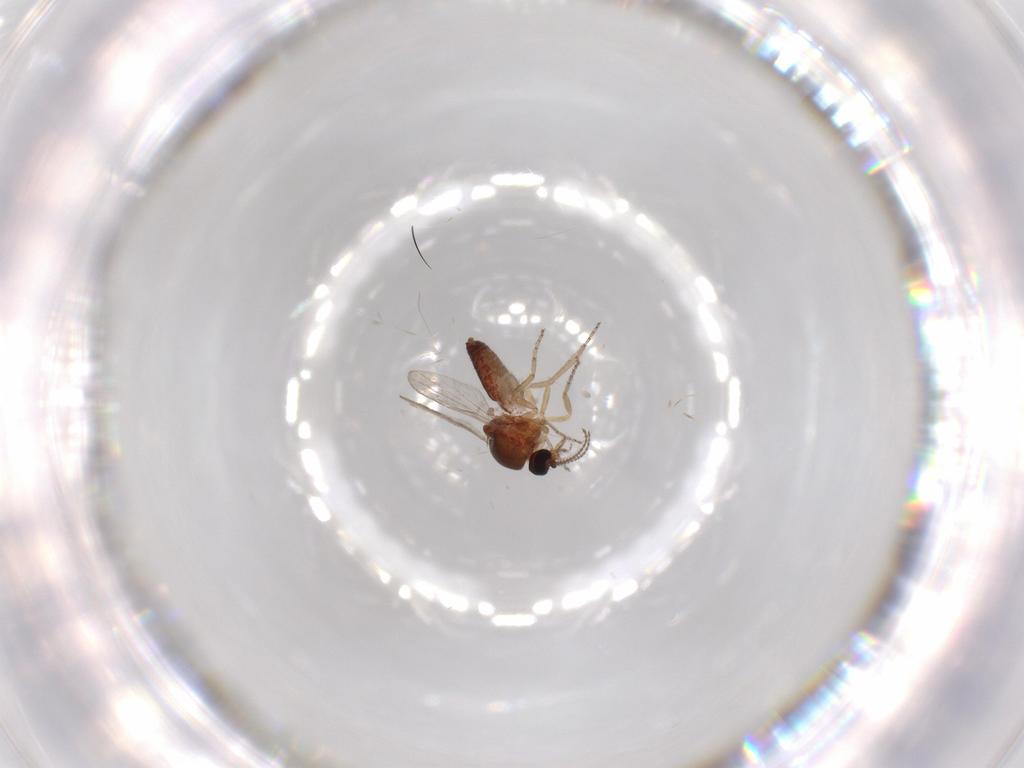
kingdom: Animalia
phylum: Arthropoda
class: Insecta
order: Diptera
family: Ceratopogonidae
